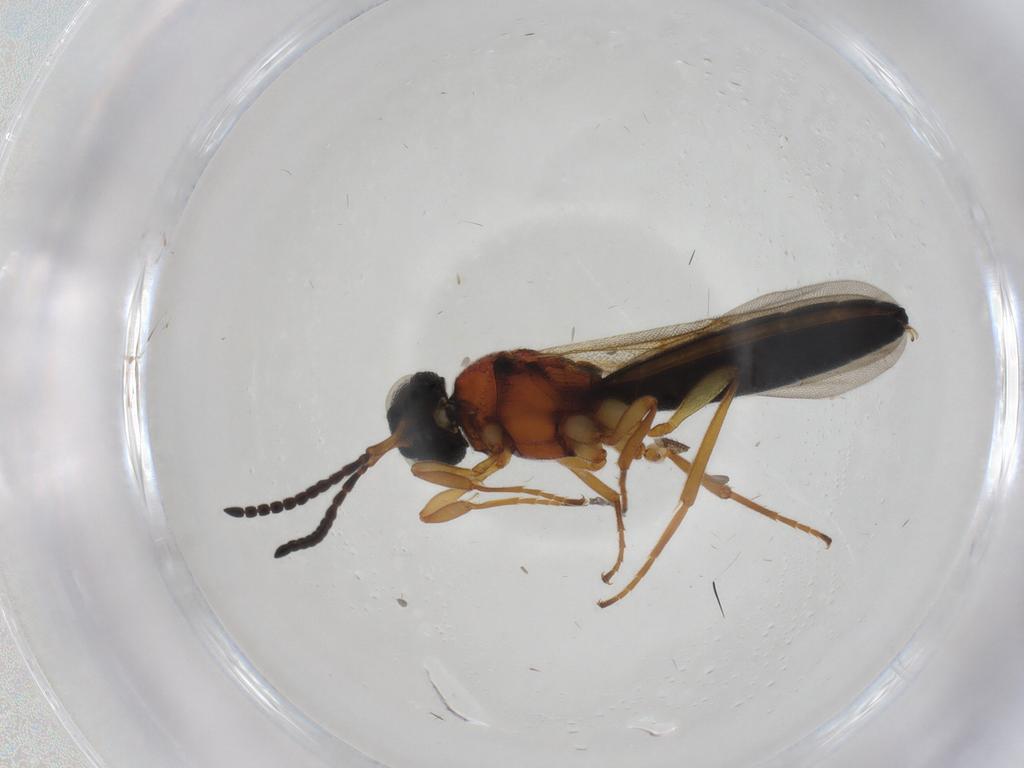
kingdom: Animalia
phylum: Arthropoda
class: Insecta
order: Hymenoptera
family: Scelionidae
